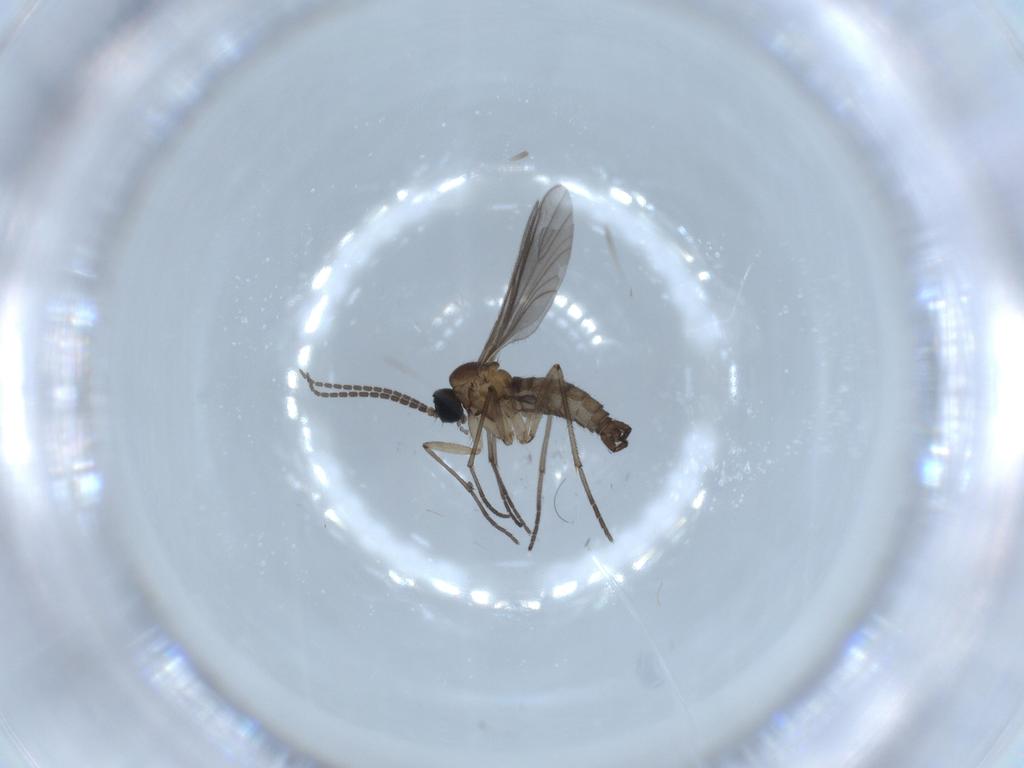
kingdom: Animalia
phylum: Arthropoda
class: Insecta
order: Diptera
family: Sciaridae
